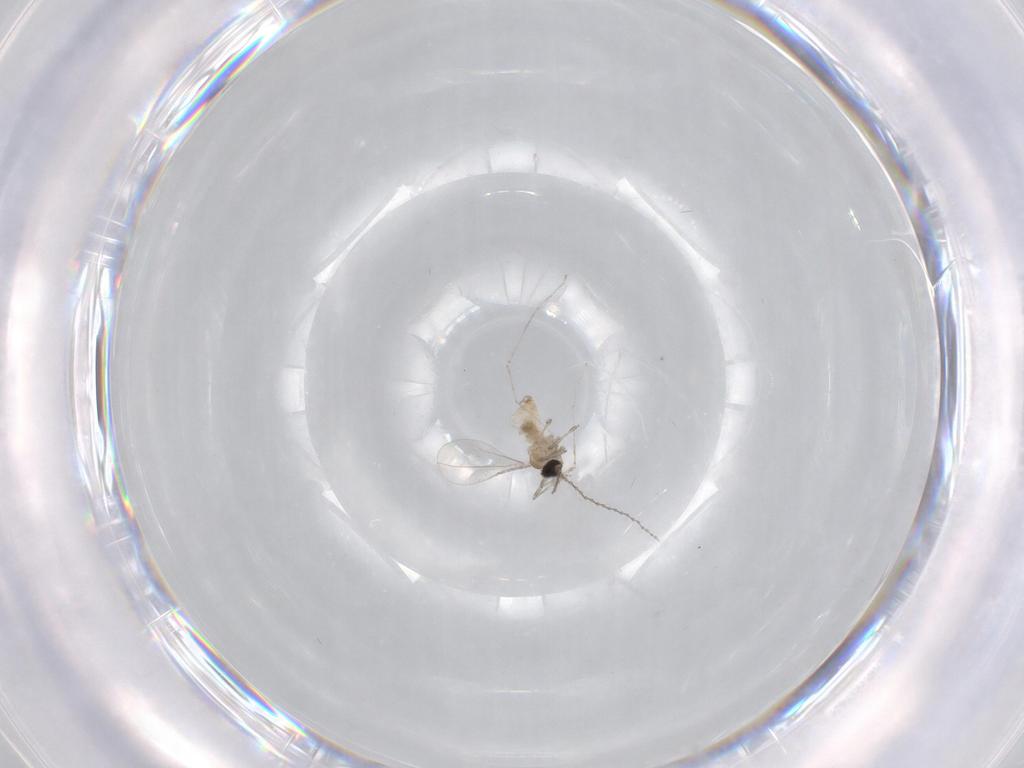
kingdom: Animalia
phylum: Arthropoda
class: Insecta
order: Diptera
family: Cecidomyiidae
